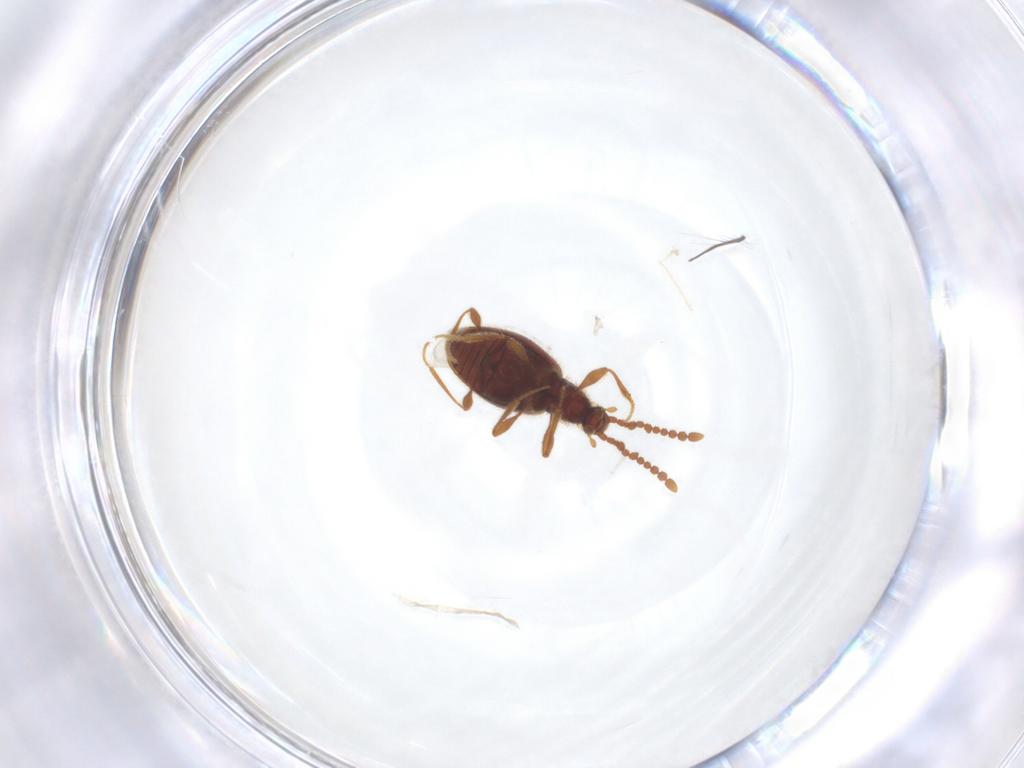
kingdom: Animalia
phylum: Arthropoda
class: Insecta
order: Coleoptera
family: Staphylinidae
